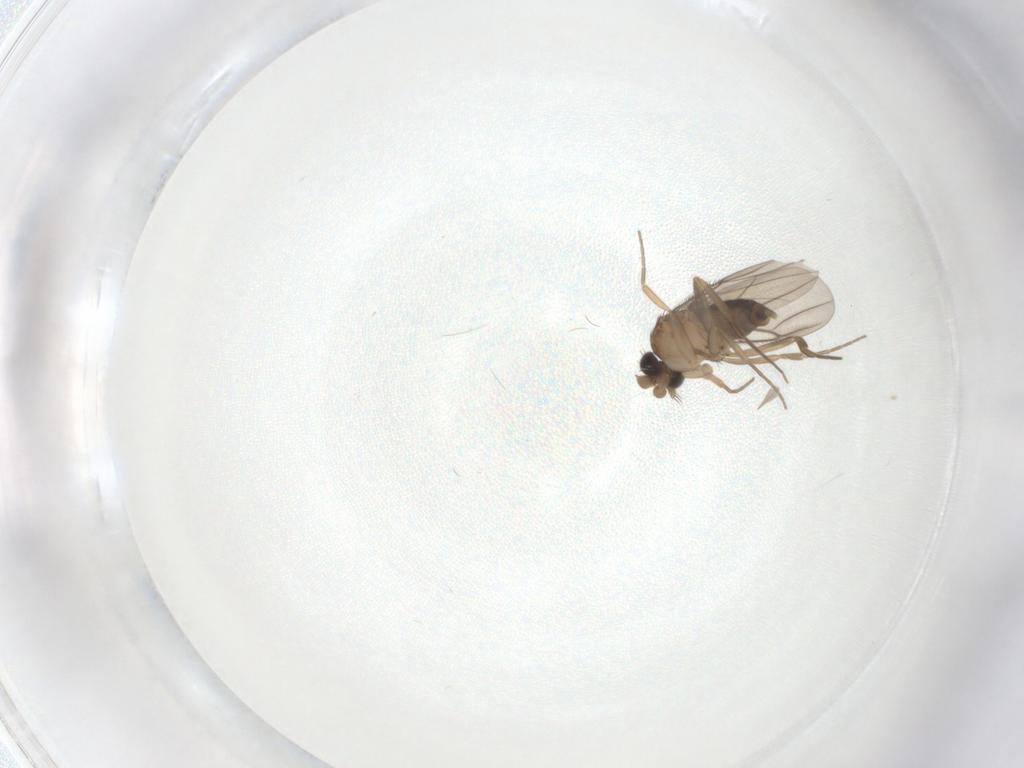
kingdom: Animalia
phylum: Arthropoda
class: Insecta
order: Diptera
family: Phoridae
